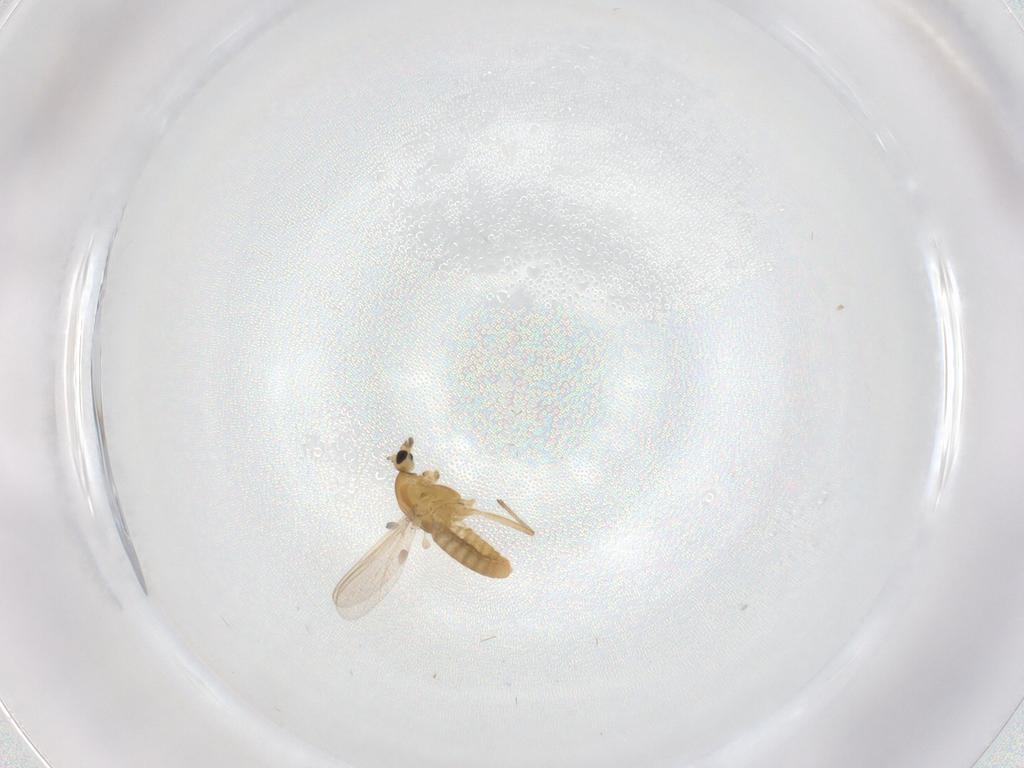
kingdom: Animalia
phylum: Arthropoda
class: Insecta
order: Diptera
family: Chironomidae
